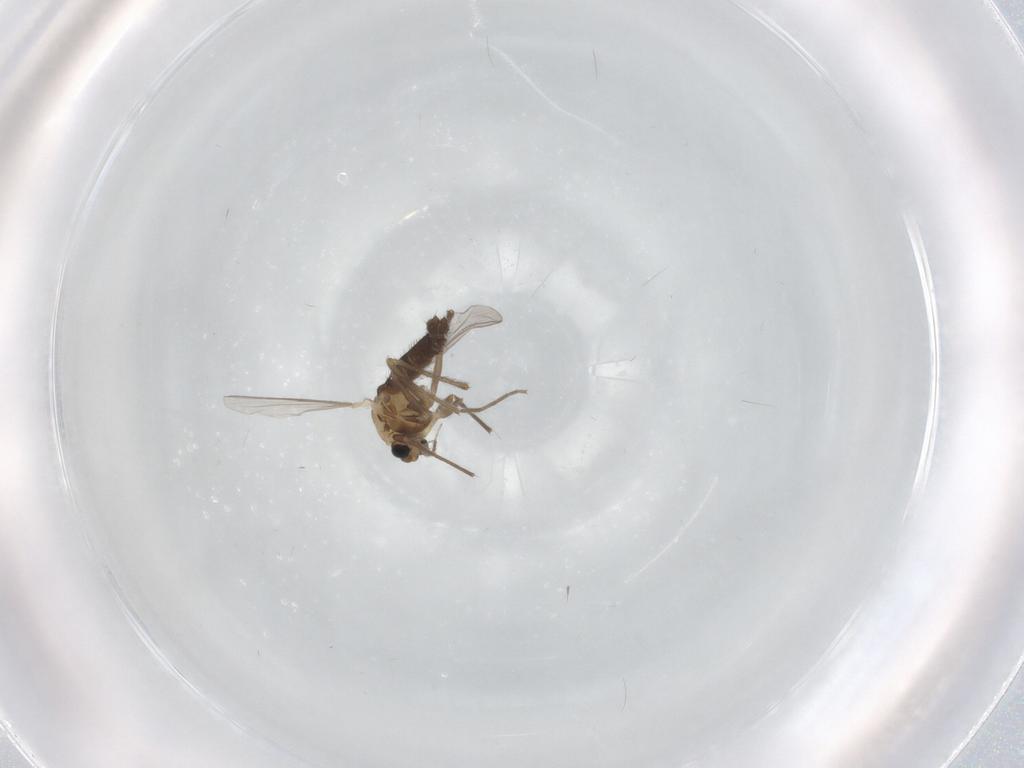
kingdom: Animalia
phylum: Arthropoda
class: Insecta
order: Diptera
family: Chironomidae
